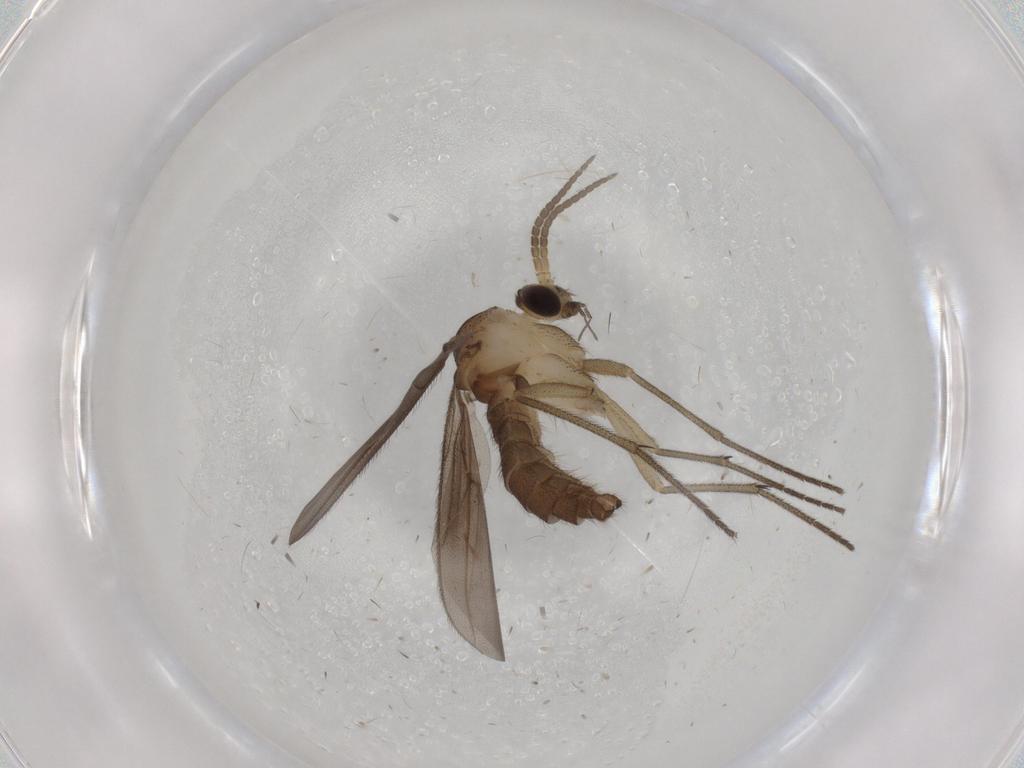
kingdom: Animalia
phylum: Arthropoda
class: Insecta
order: Diptera
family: Diadocidiidae
